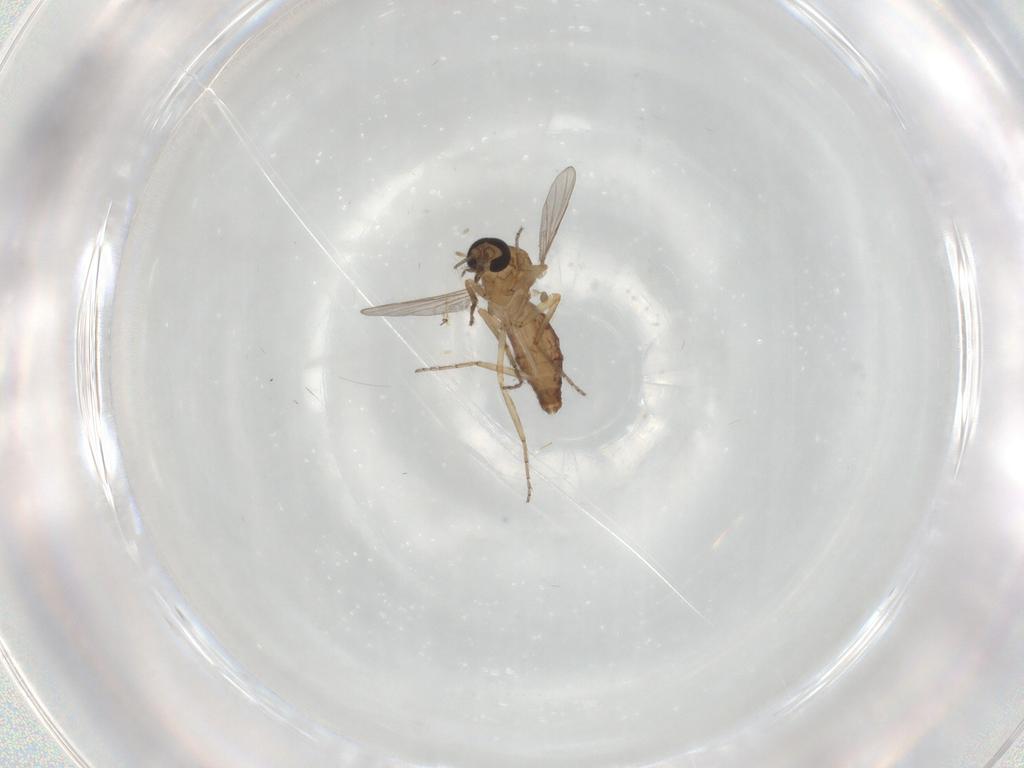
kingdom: Animalia
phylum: Arthropoda
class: Insecta
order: Diptera
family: Ceratopogonidae
